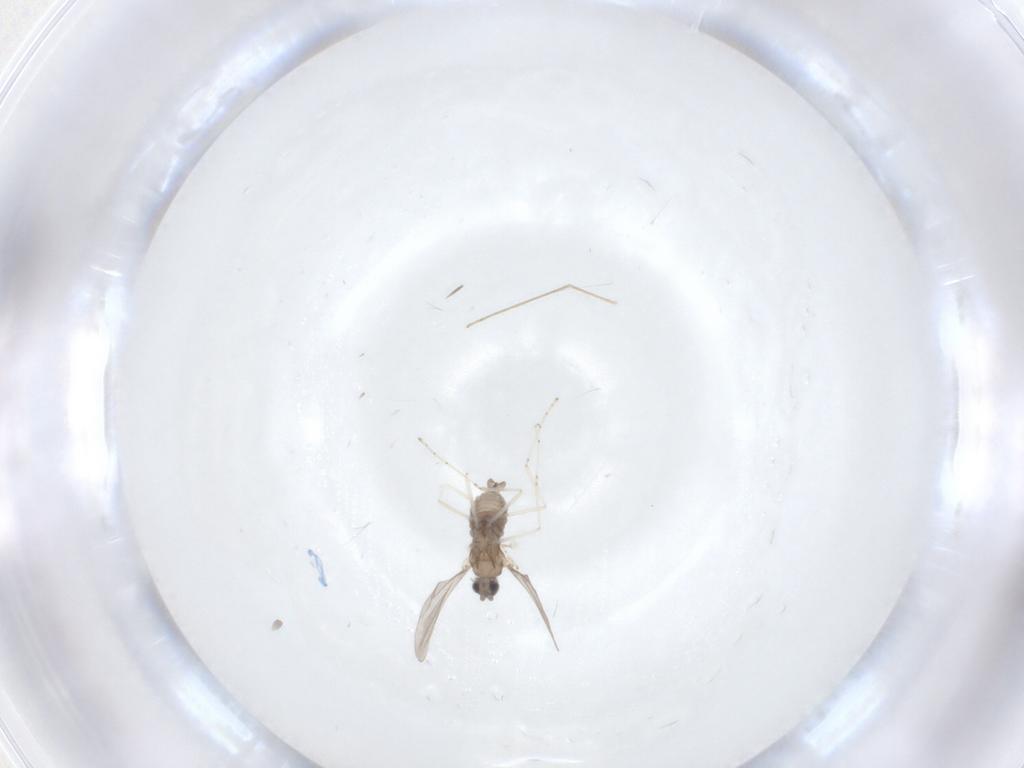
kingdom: Animalia
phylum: Arthropoda
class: Insecta
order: Diptera
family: Chironomidae
